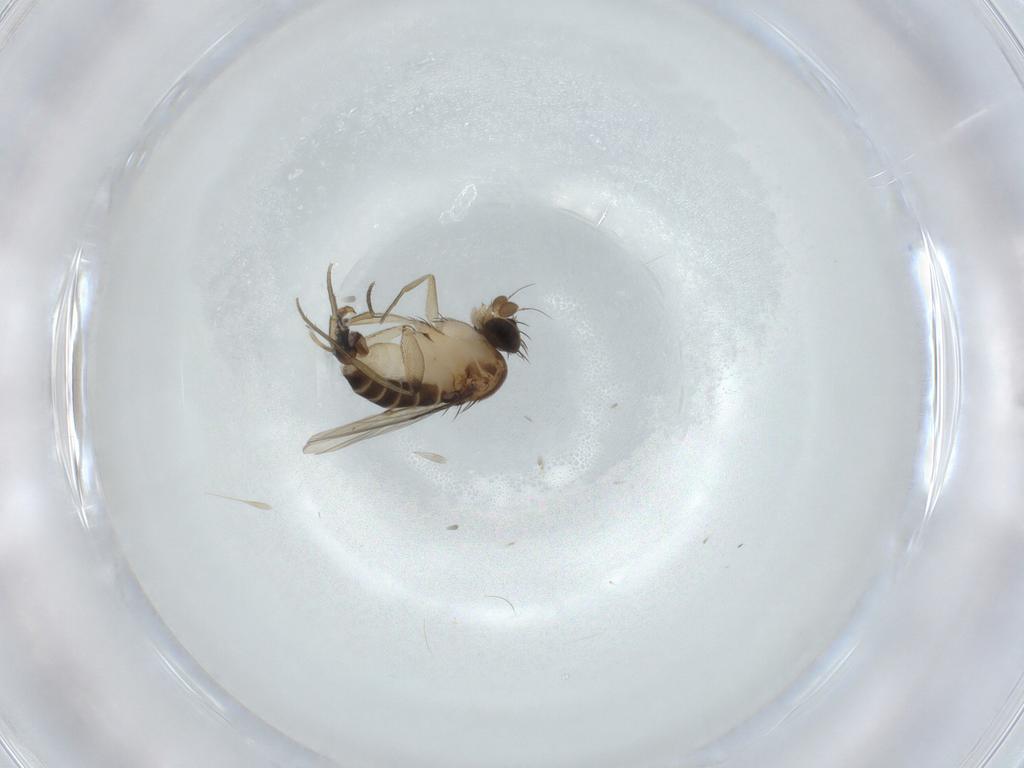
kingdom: Animalia
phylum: Arthropoda
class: Insecta
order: Diptera
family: Phoridae
